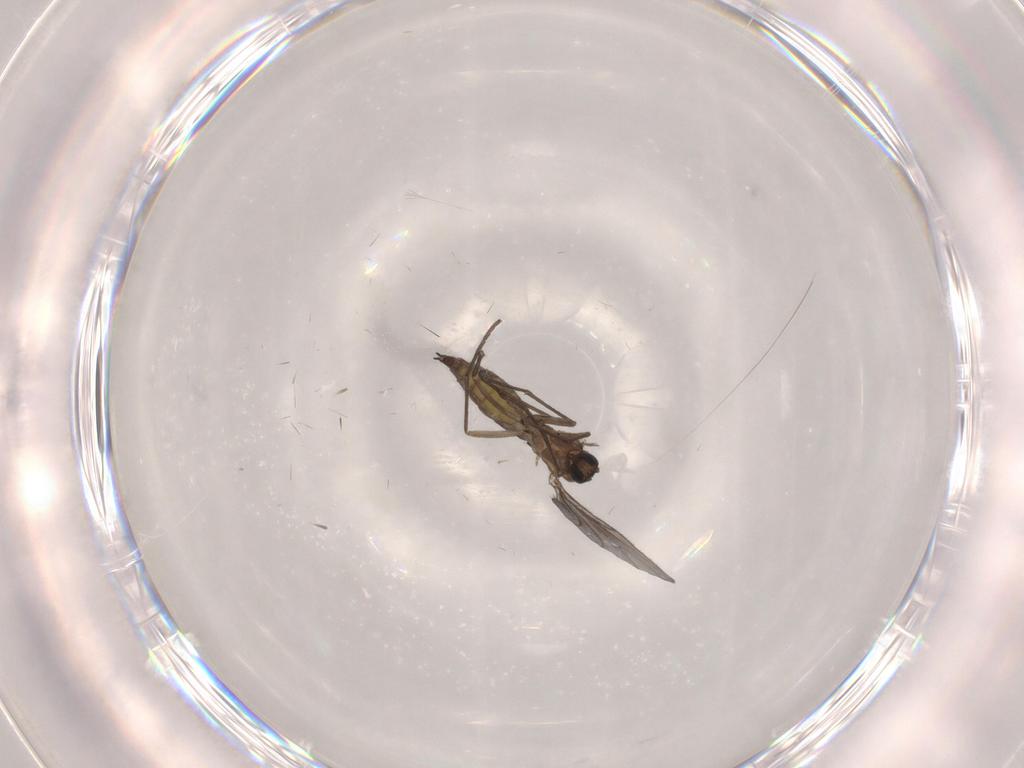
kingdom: Animalia
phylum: Arthropoda
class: Insecta
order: Diptera
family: Sciaridae
